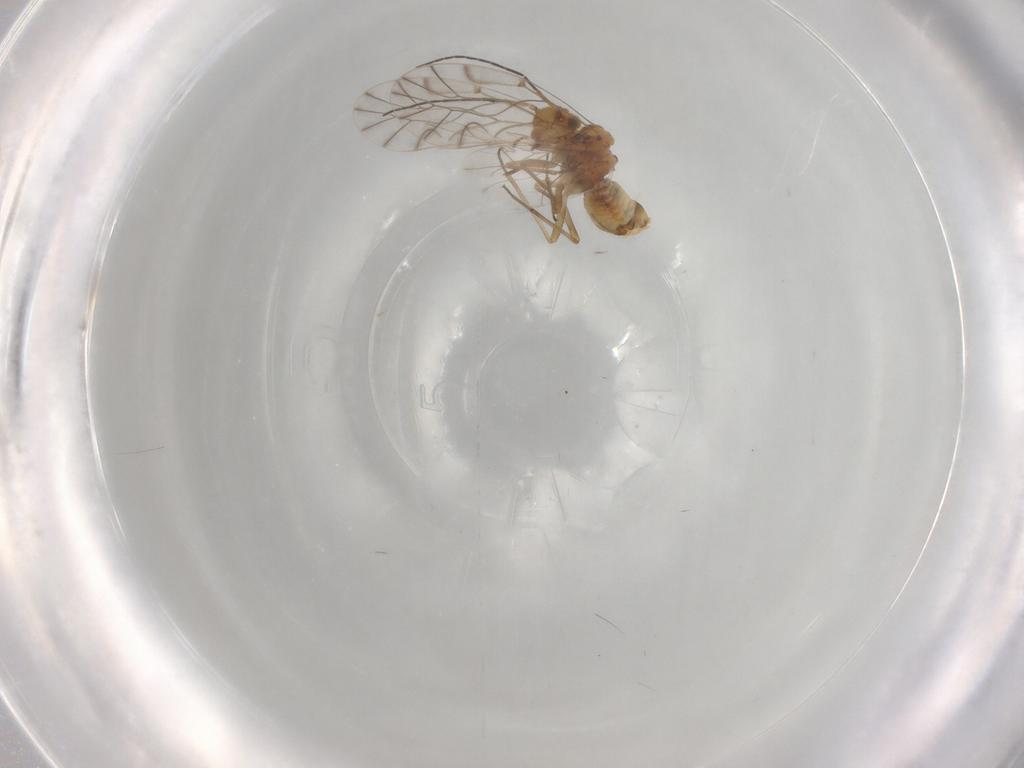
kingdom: Animalia
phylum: Arthropoda
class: Insecta
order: Psocodea
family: Lachesillidae
